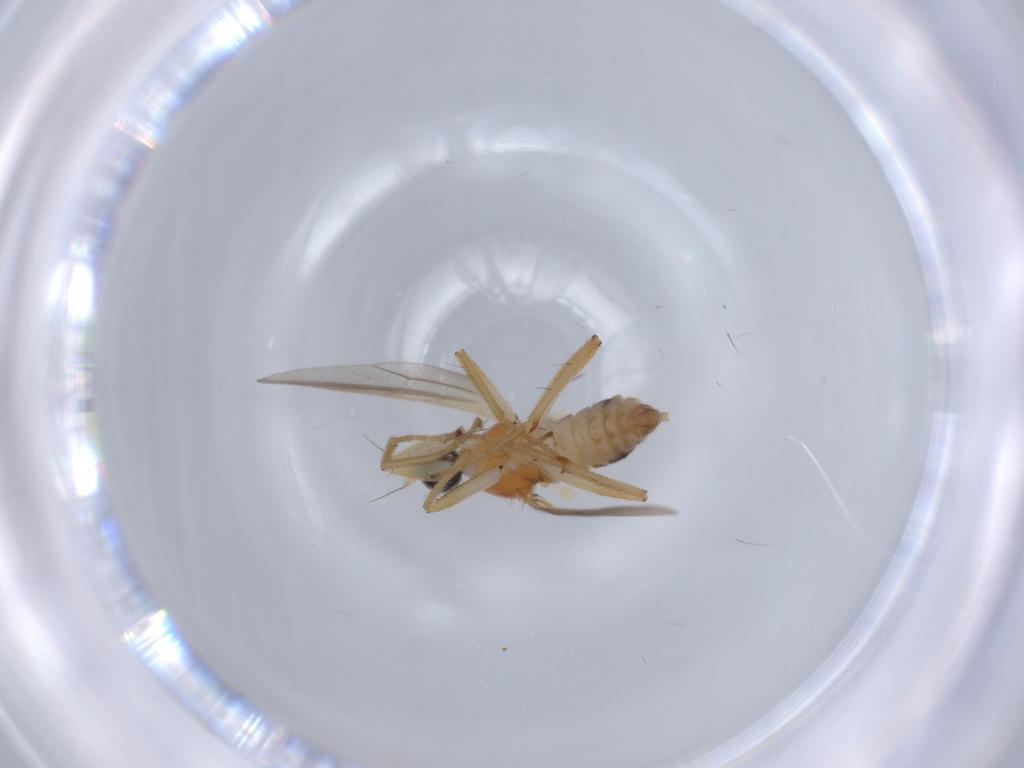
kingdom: Animalia
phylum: Arthropoda
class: Insecta
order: Diptera
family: Hybotidae
